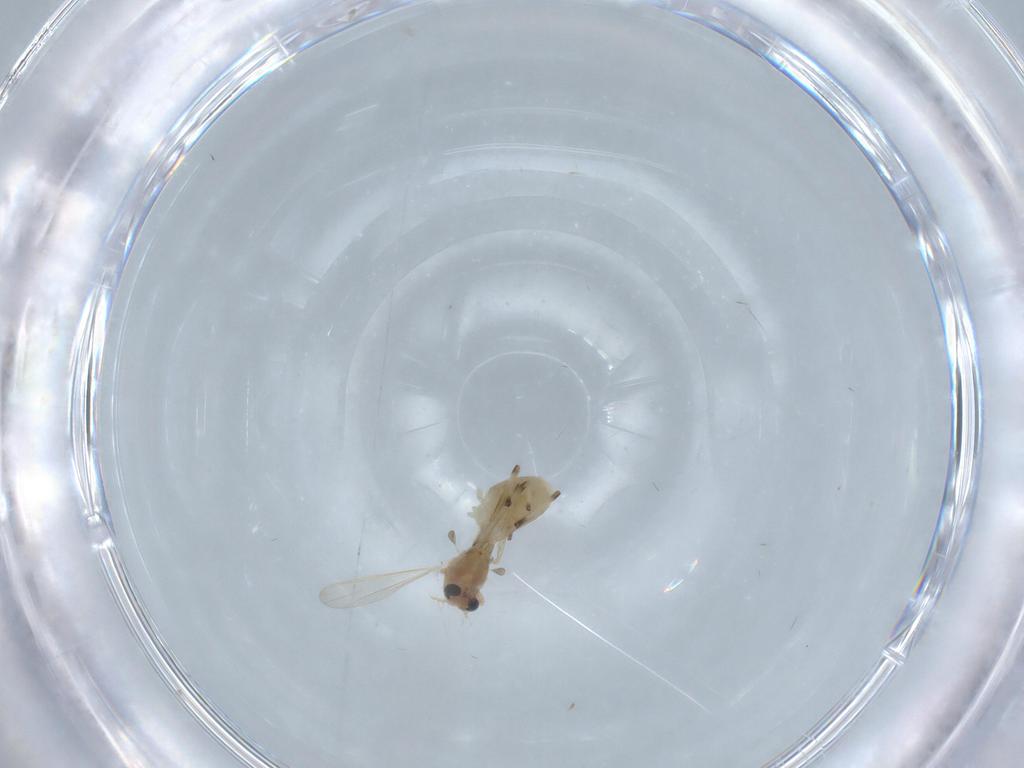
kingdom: Animalia
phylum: Arthropoda
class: Insecta
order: Diptera
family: Chironomidae
